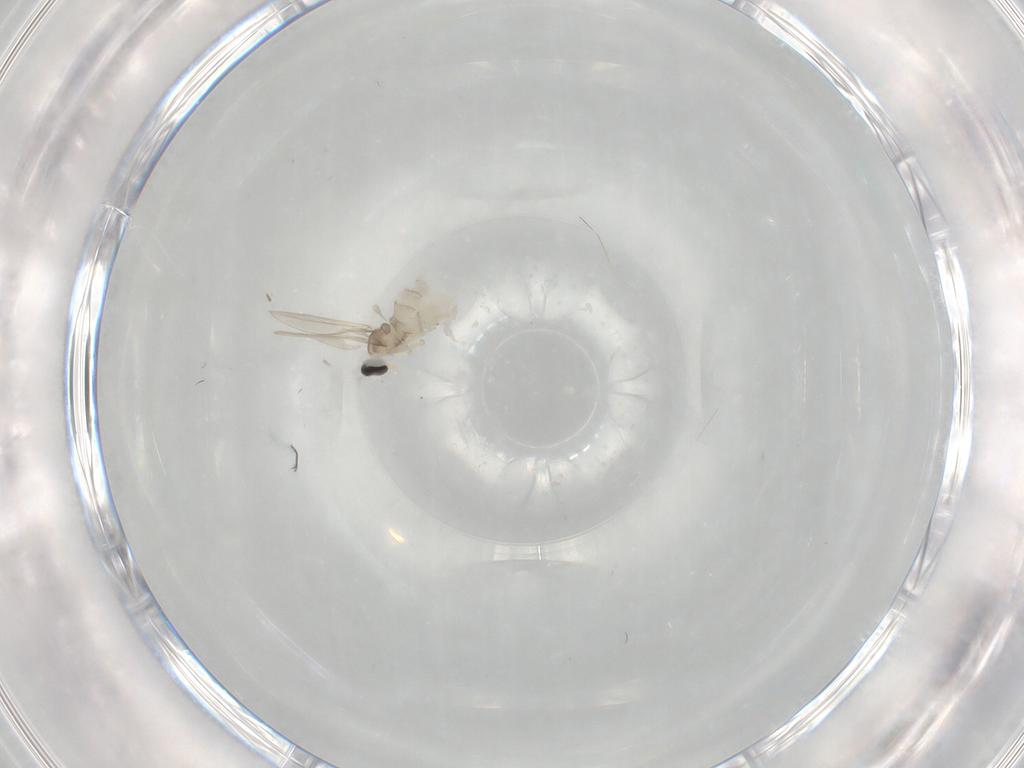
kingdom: Animalia
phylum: Arthropoda
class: Insecta
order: Diptera
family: Cecidomyiidae
